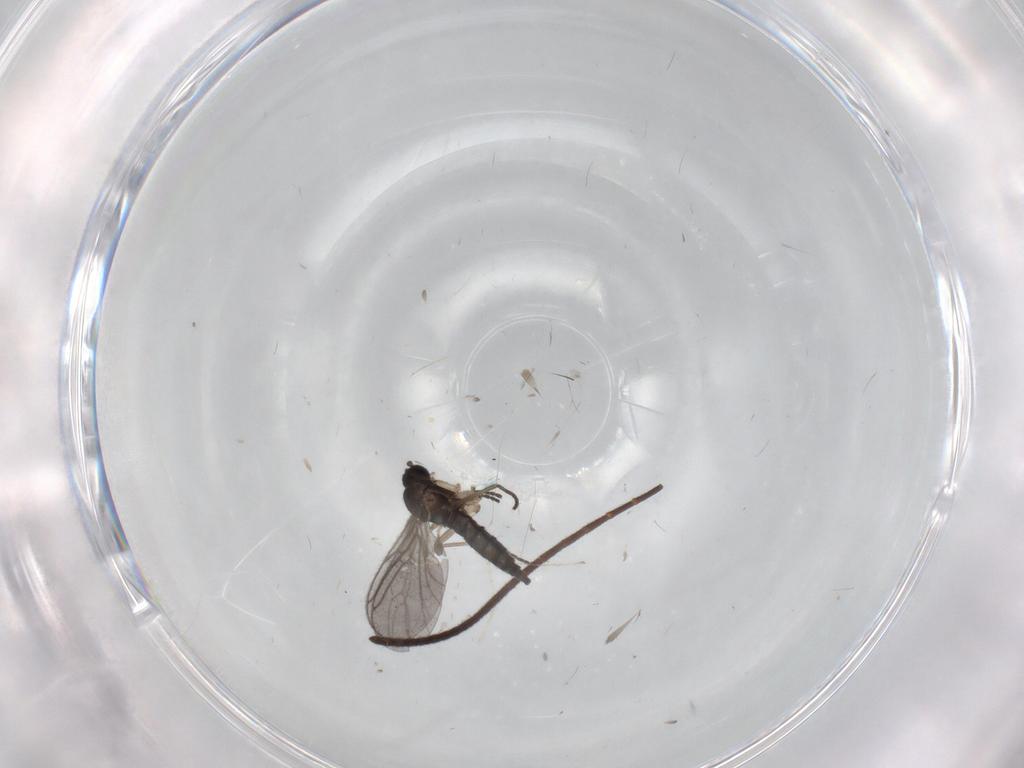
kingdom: Animalia
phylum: Arthropoda
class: Insecta
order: Diptera
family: Sciaridae
